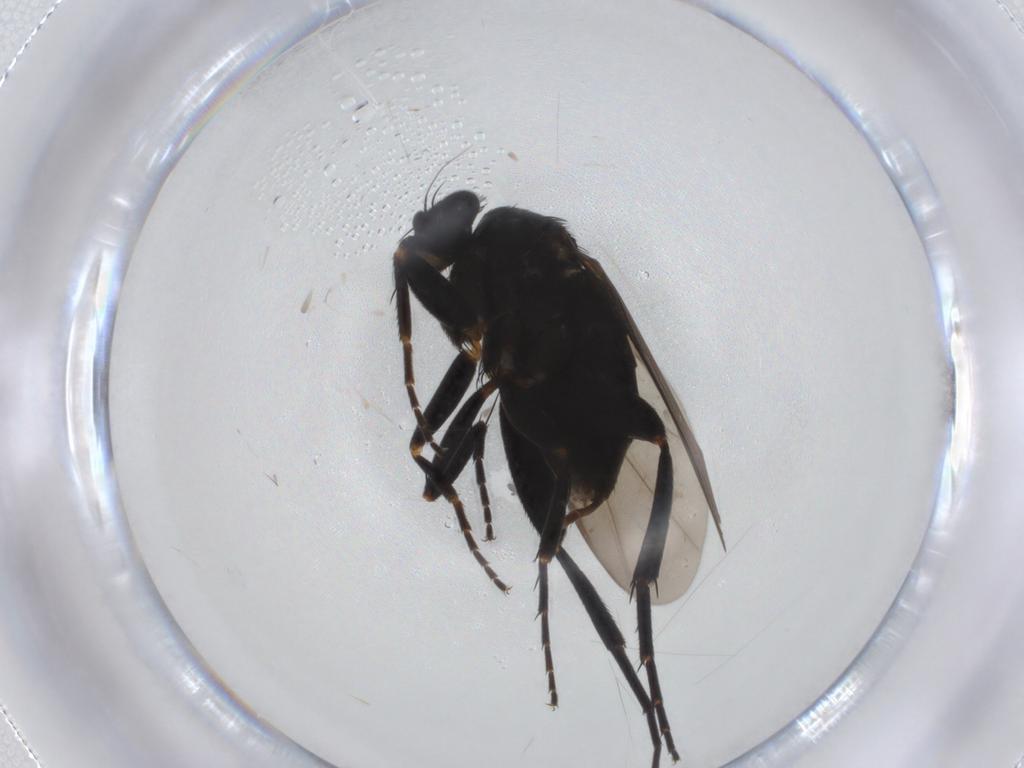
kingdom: Animalia
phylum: Arthropoda
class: Insecta
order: Diptera
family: Phoridae
